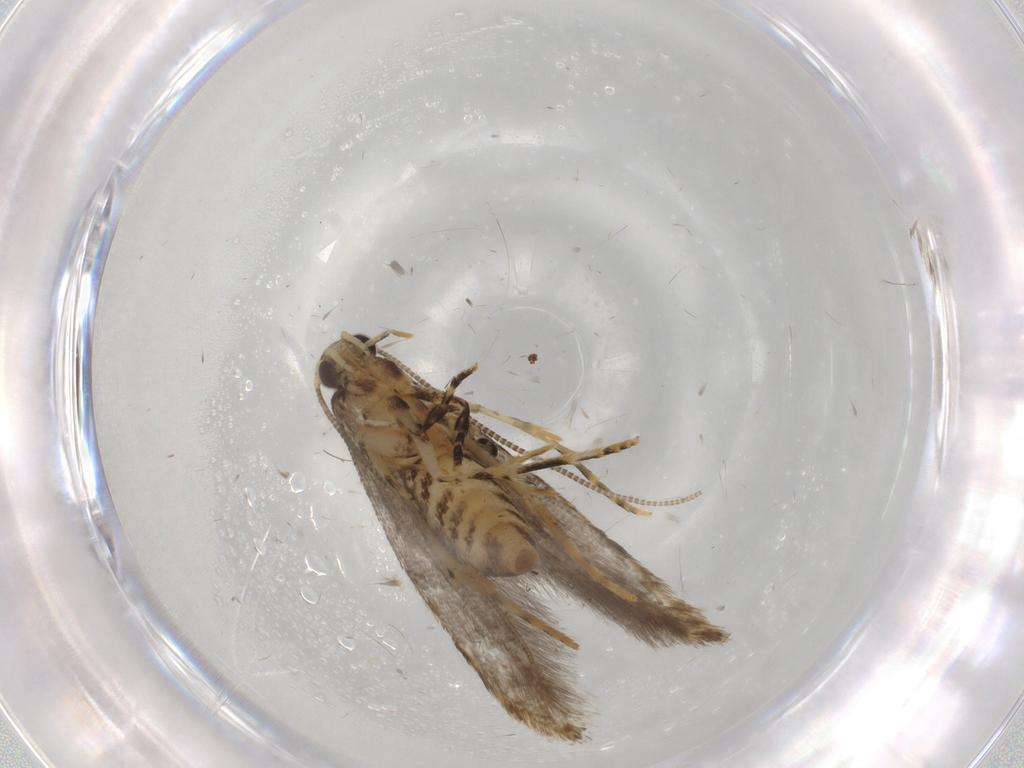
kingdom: Animalia
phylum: Arthropoda
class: Insecta
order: Lepidoptera
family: Tineidae
